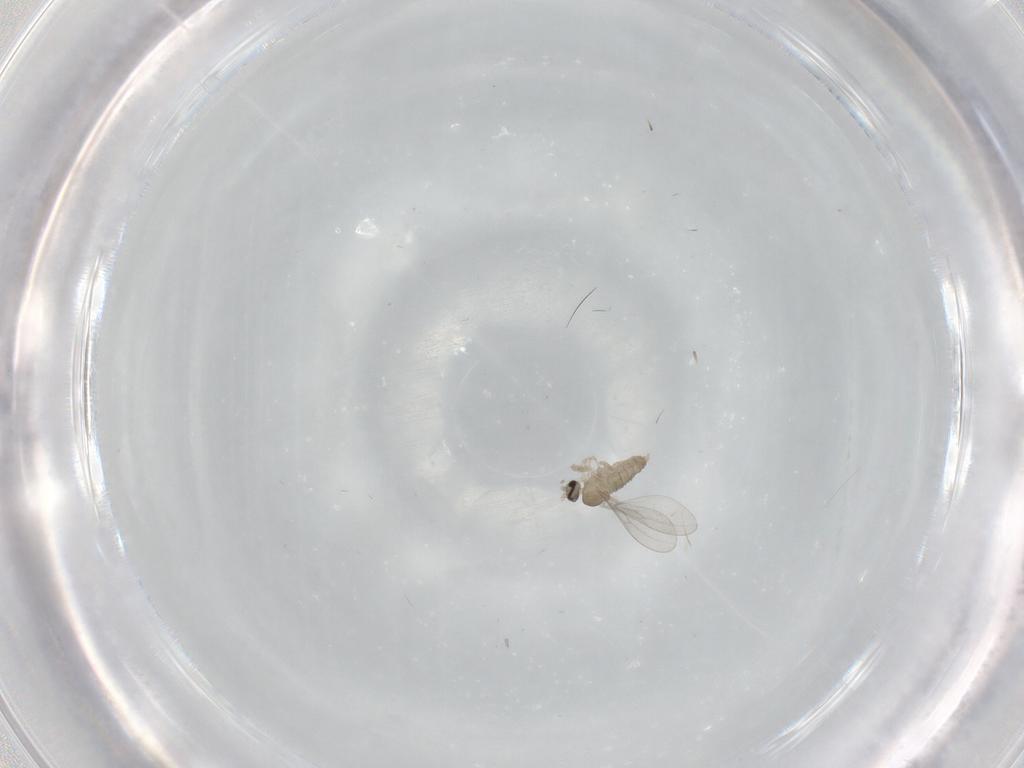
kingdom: Animalia
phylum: Arthropoda
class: Insecta
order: Diptera
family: Cecidomyiidae
